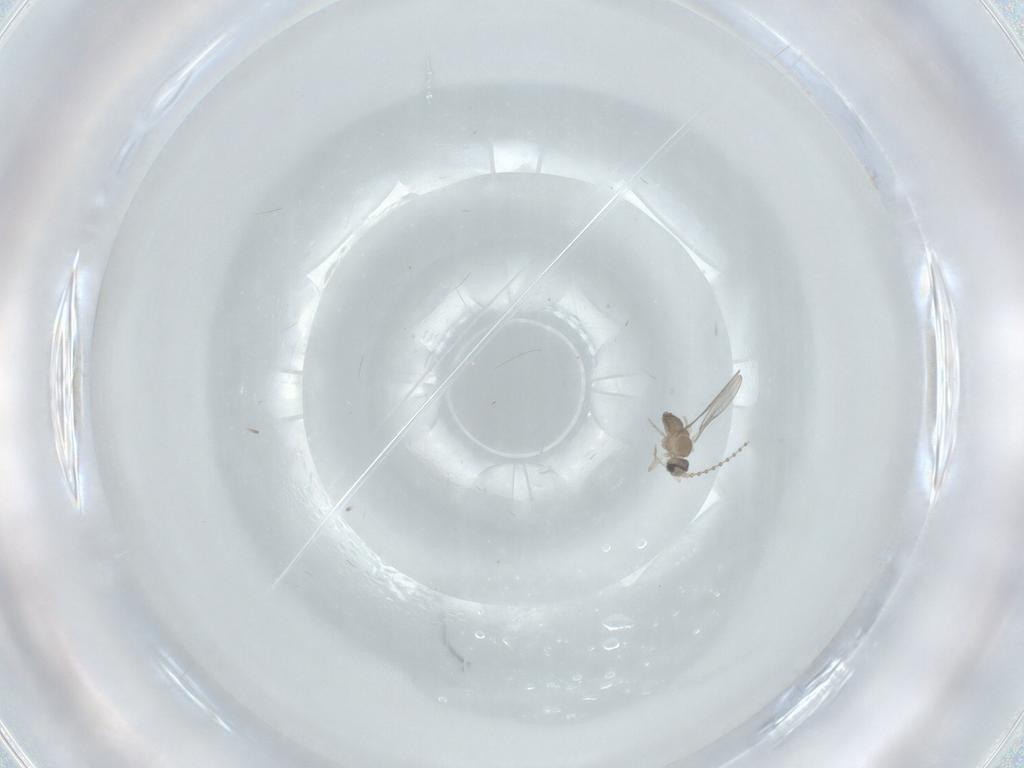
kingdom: Animalia
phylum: Arthropoda
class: Insecta
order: Diptera
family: Cecidomyiidae
